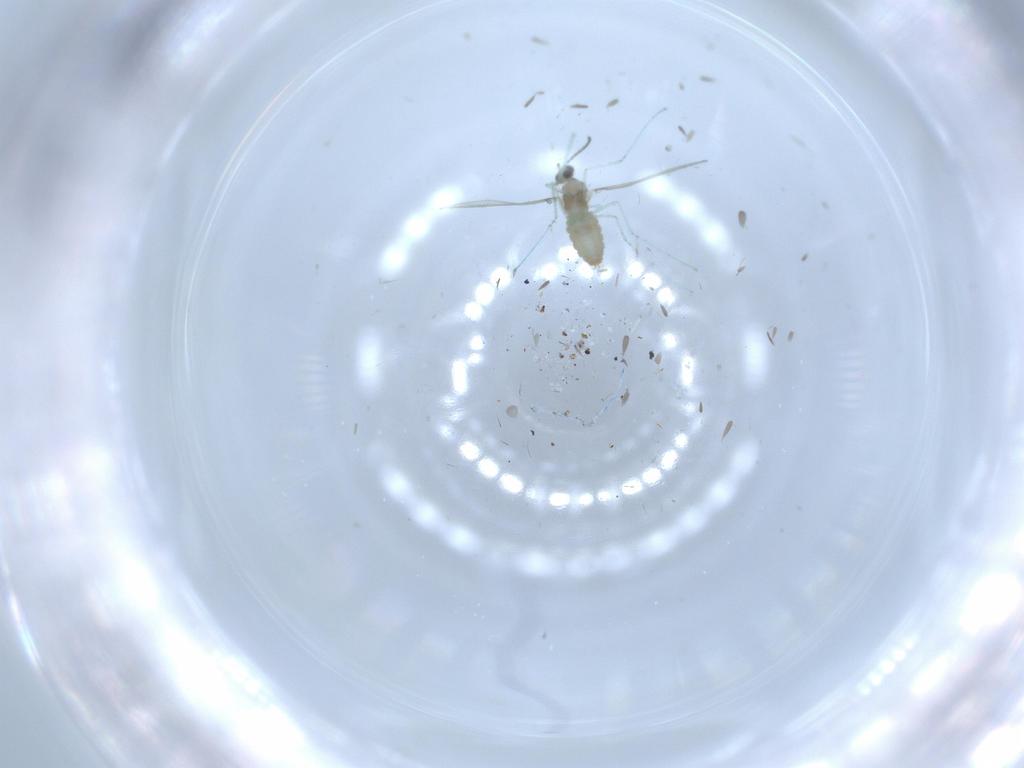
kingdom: Animalia
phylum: Arthropoda
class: Insecta
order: Diptera
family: Cecidomyiidae
